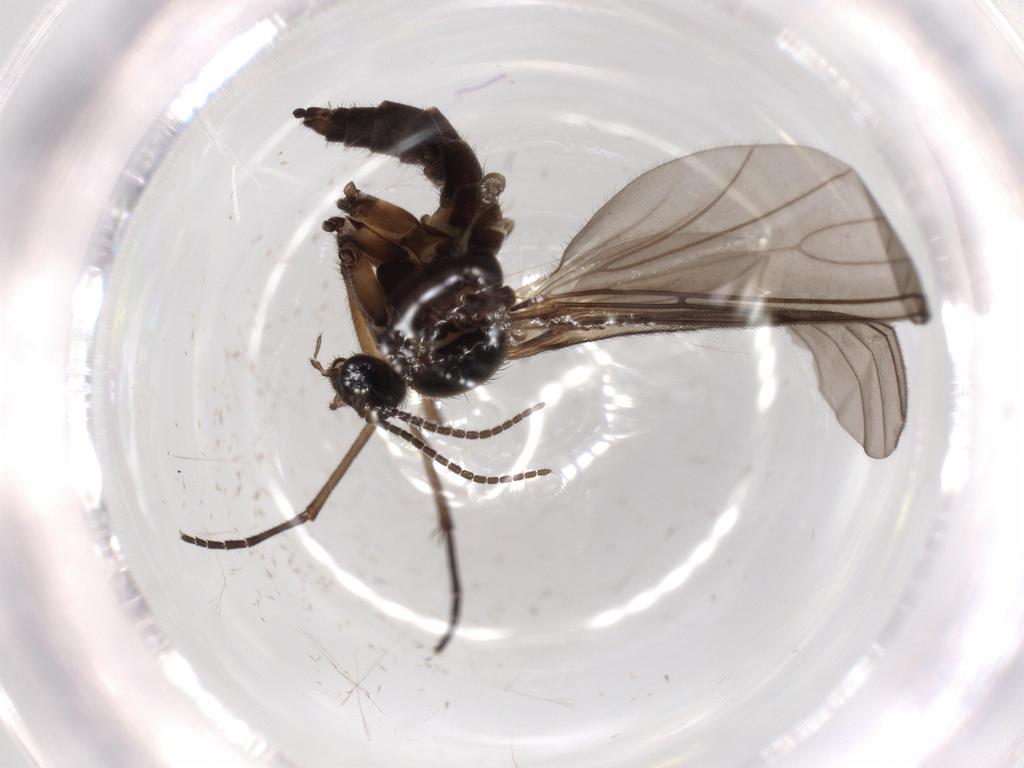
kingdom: Animalia
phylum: Arthropoda
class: Insecta
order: Diptera
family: Sciaridae
